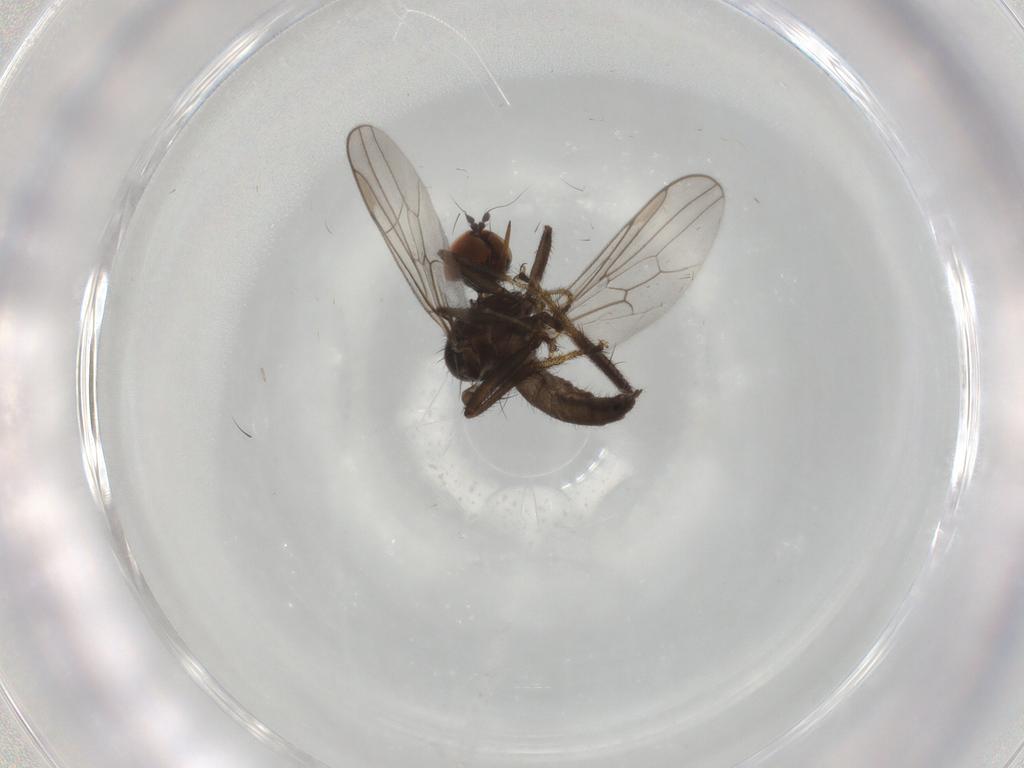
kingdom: Animalia
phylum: Arthropoda
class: Insecta
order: Diptera
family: Hybotidae
